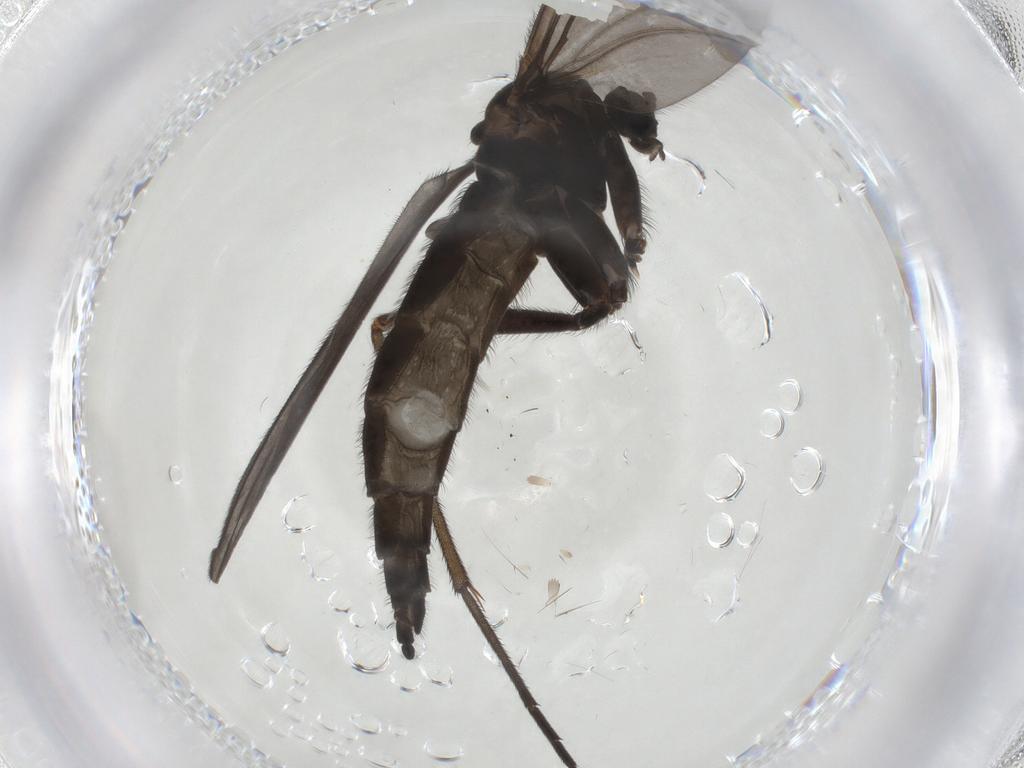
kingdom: Animalia
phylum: Arthropoda
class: Insecta
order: Diptera
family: Sciaridae
